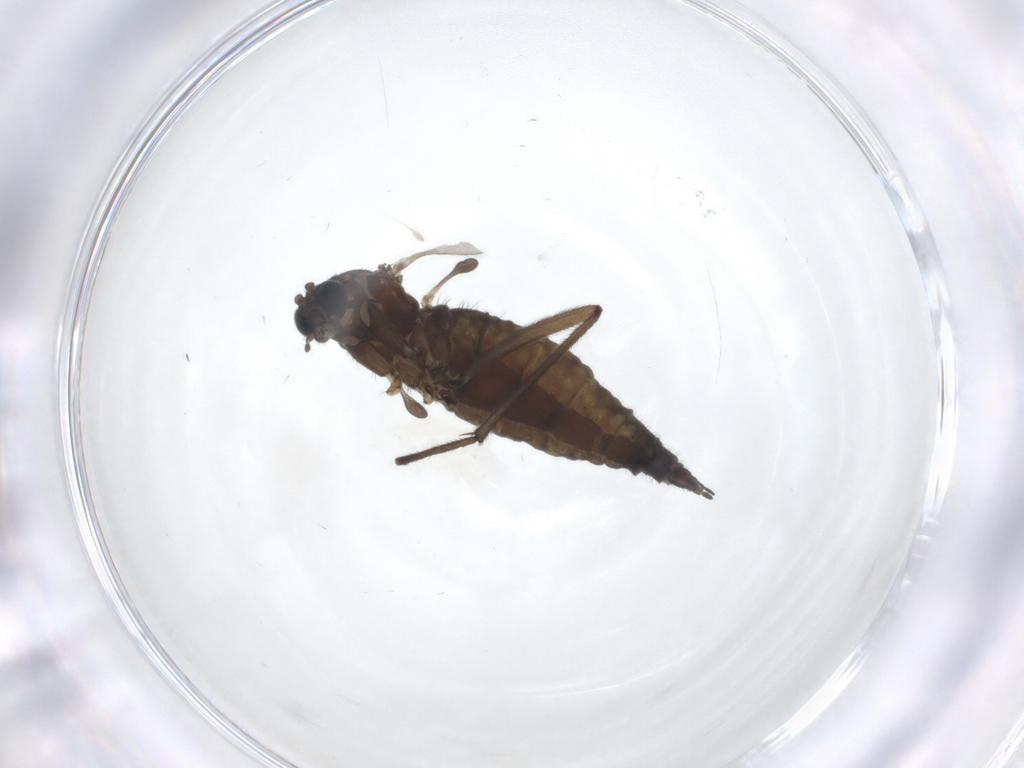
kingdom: Animalia
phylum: Arthropoda
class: Insecta
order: Diptera
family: Sciaridae
